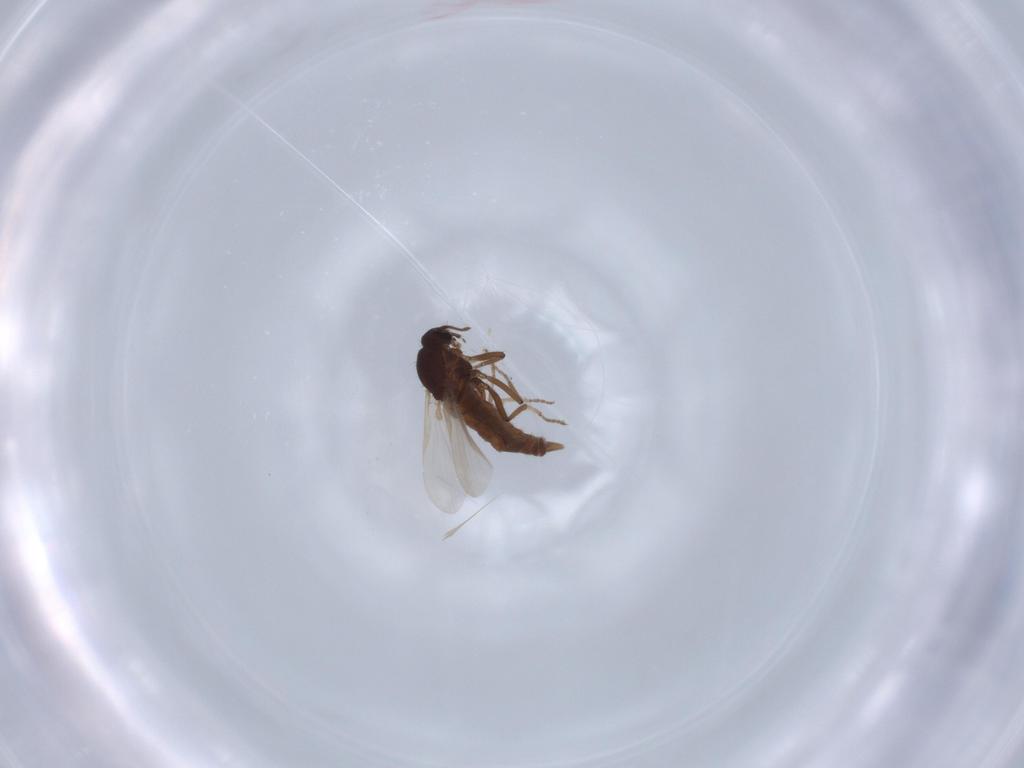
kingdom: Animalia
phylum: Arthropoda
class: Insecta
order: Diptera
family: Ceratopogonidae
